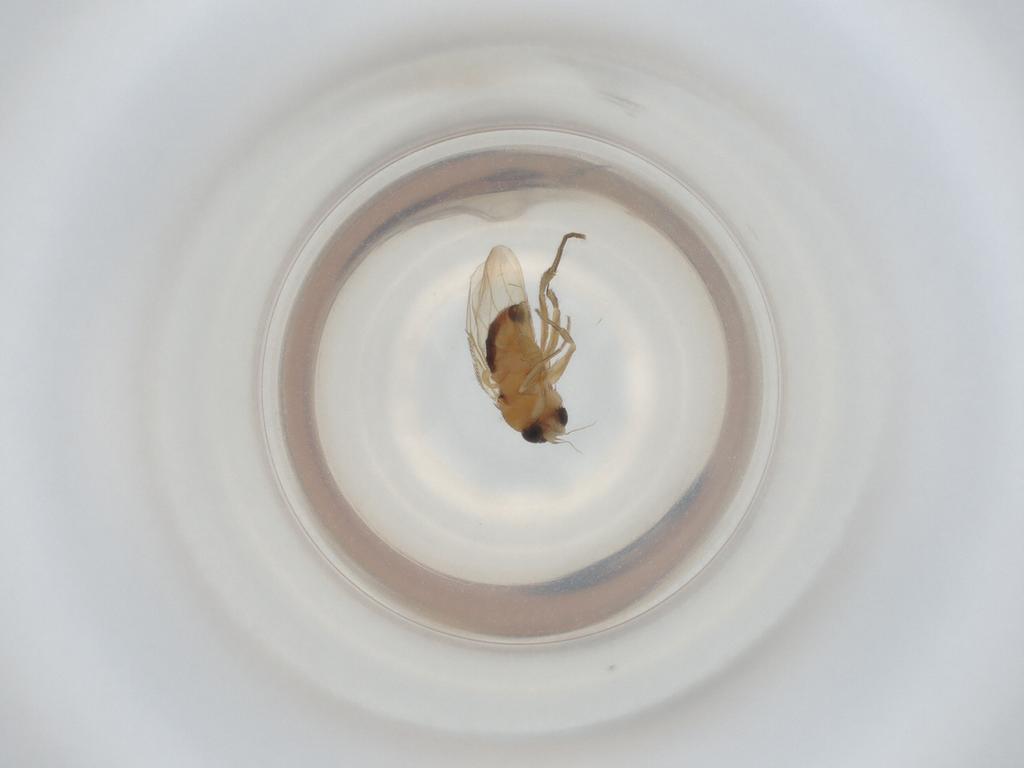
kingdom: Animalia
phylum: Arthropoda
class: Insecta
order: Diptera
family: Phoridae
